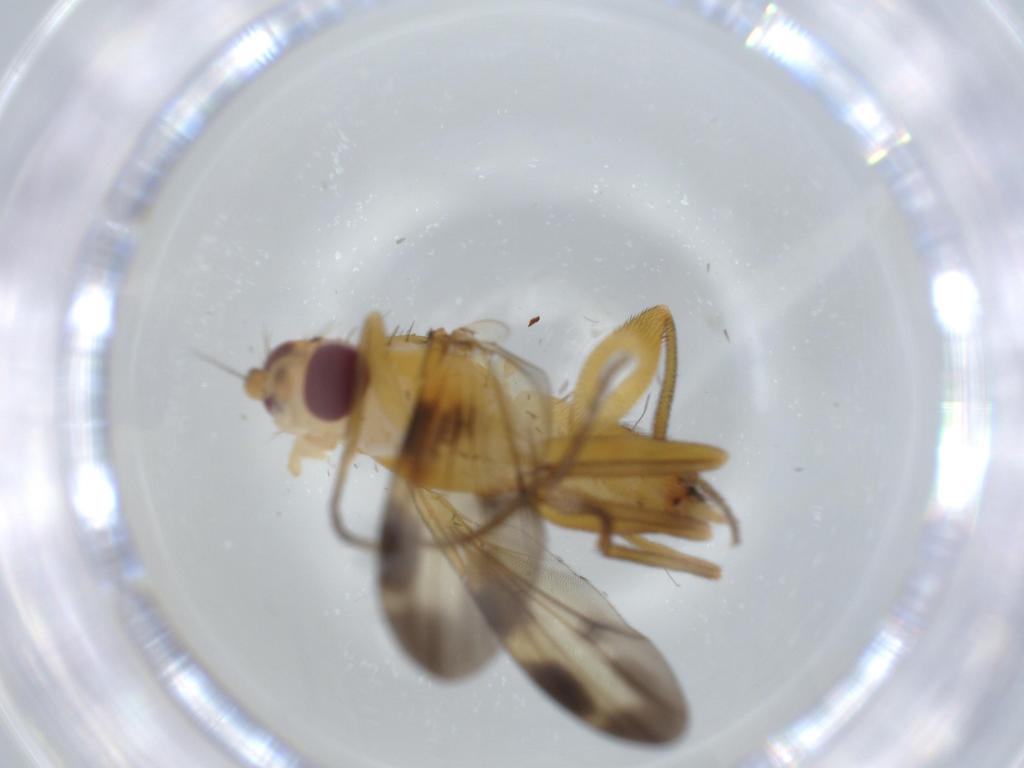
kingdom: Animalia
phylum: Arthropoda
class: Insecta
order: Diptera
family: Clusiidae
